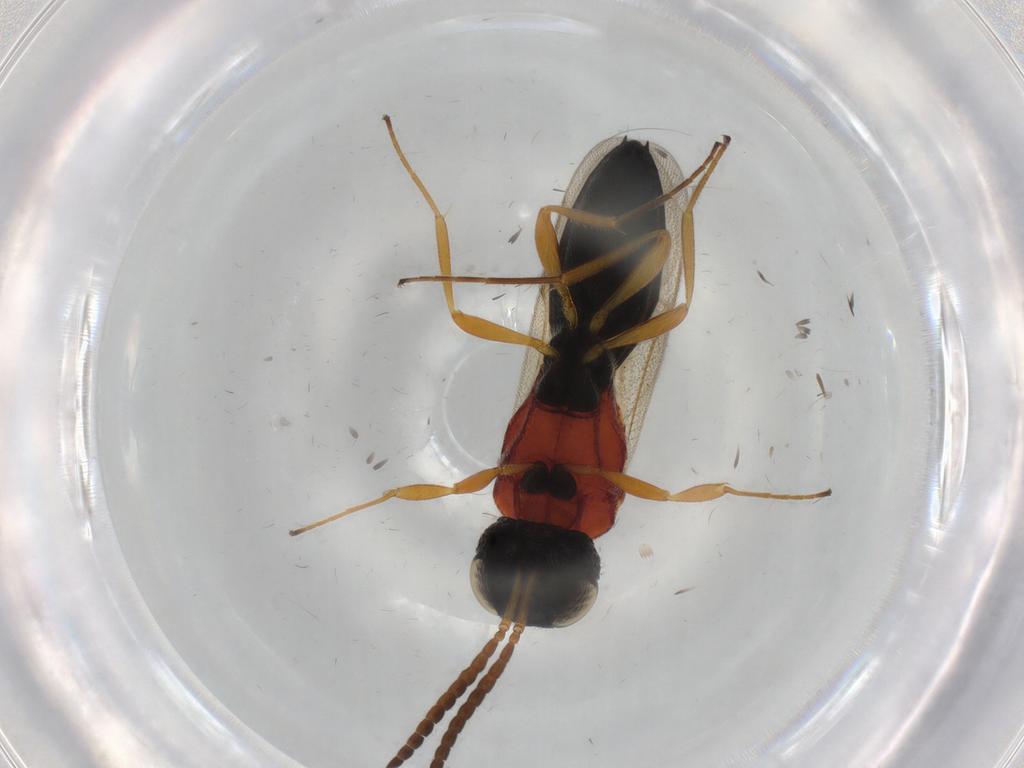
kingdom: Animalia
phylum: Arthropoda
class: Insecta
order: Hymenoptera
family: Scelionidae
